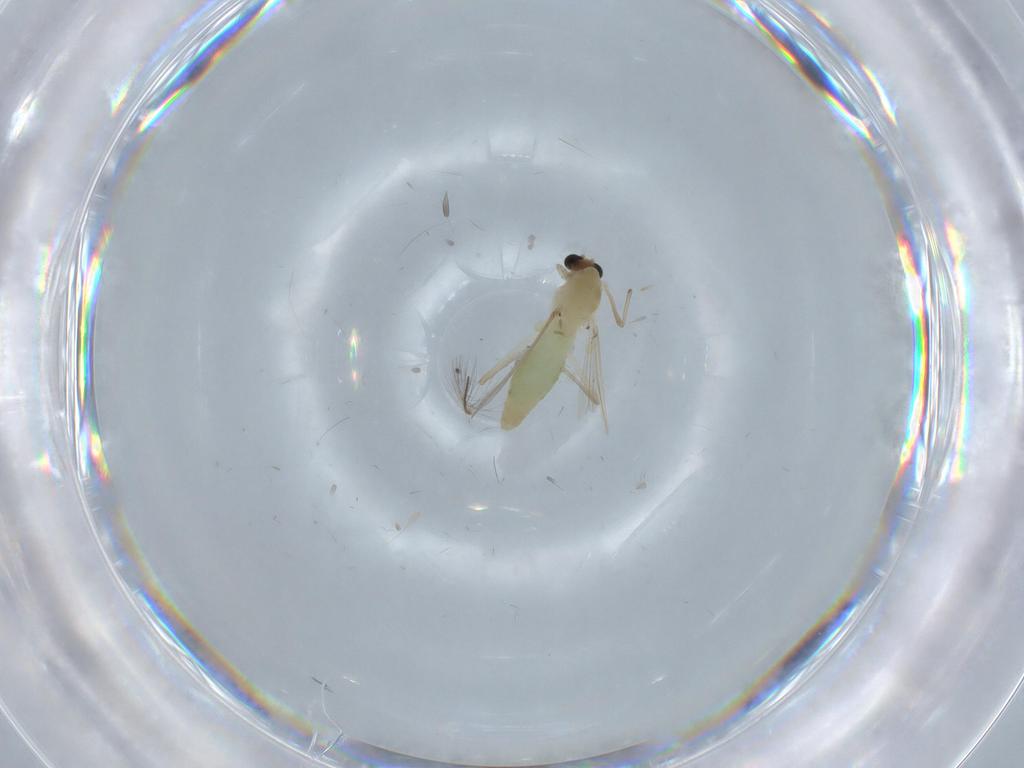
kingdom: Animalia
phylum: Arthropoda
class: Insecta
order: Diptera
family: Chironomidae
